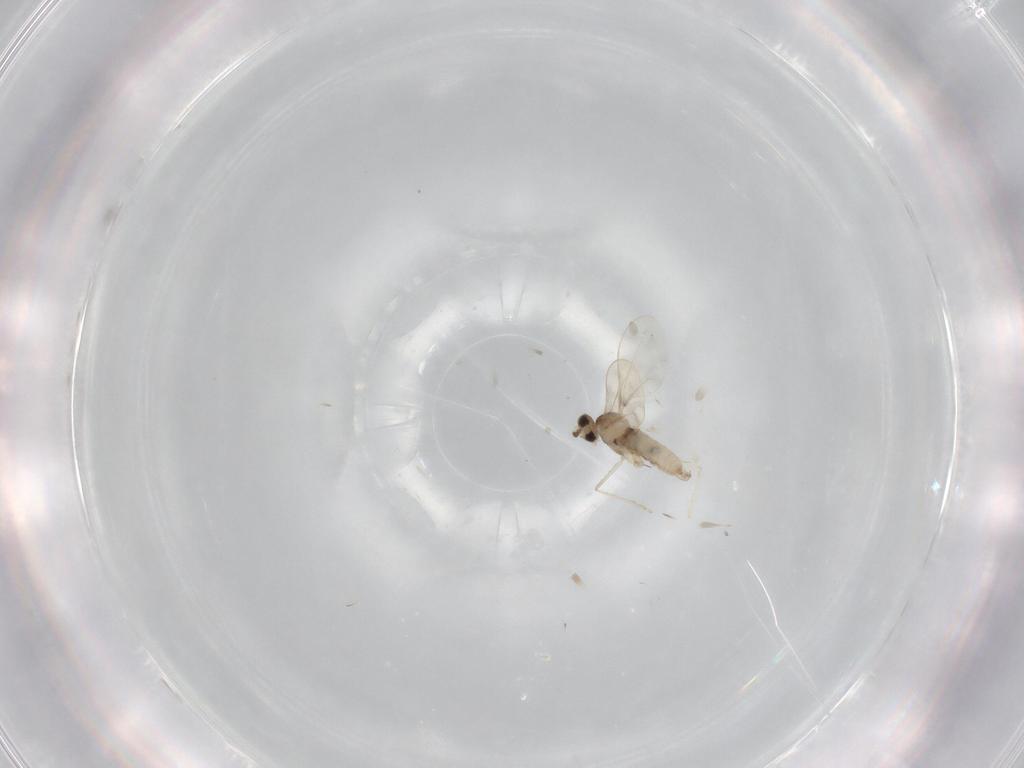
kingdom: Animalia
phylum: Arthropoda
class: Insecta
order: Diptera
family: Cecidomyiidae
